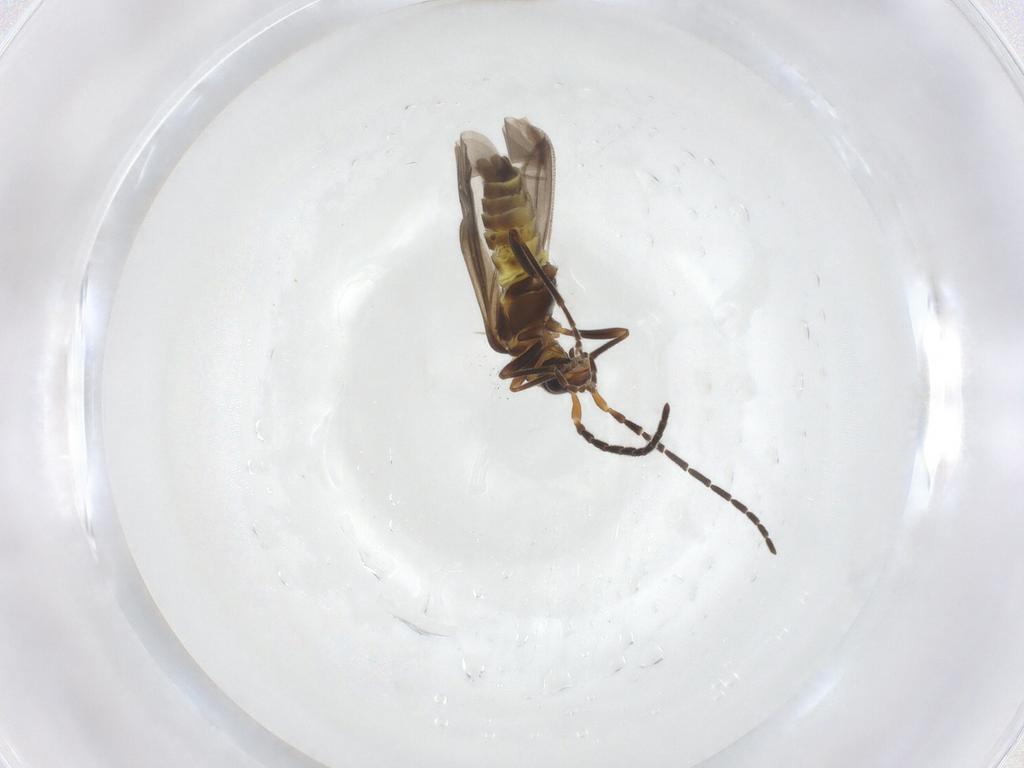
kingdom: Animalia
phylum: Arthropoda
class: Insecta
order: Coleoptera
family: Cantharidae
